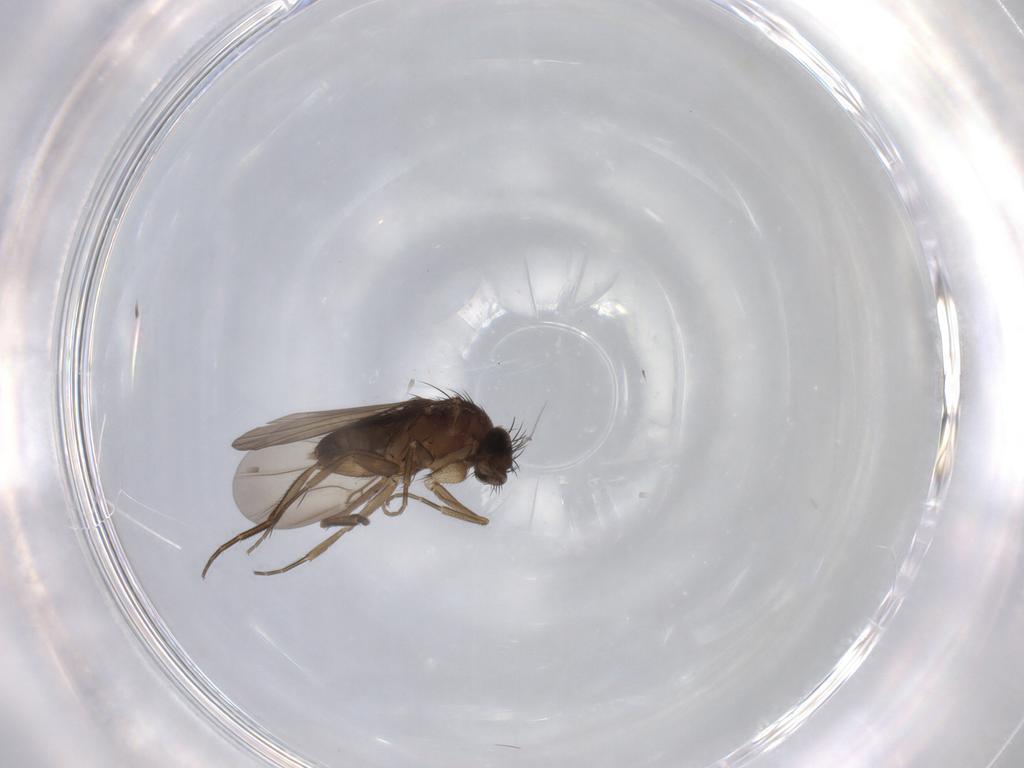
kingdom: Animalia
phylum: Arthropoda
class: Insecta
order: Diptera
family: Phoridae
